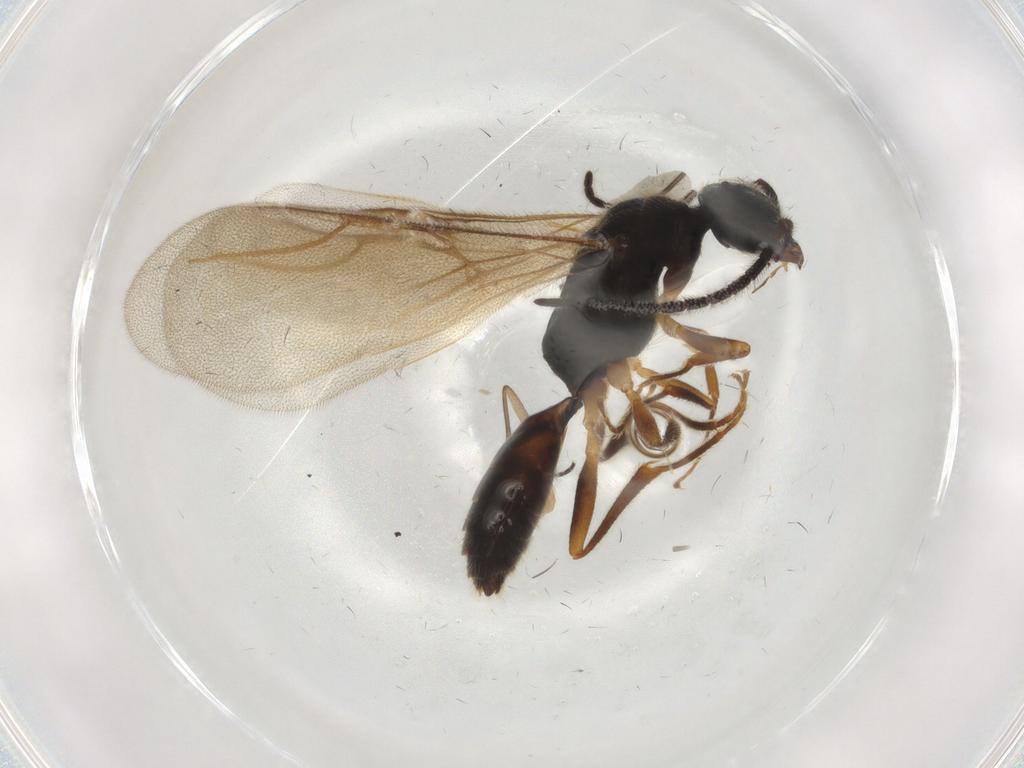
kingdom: Animalia
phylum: Arthropoda
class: Insecta
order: Hymenoptera
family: Bethylidae
